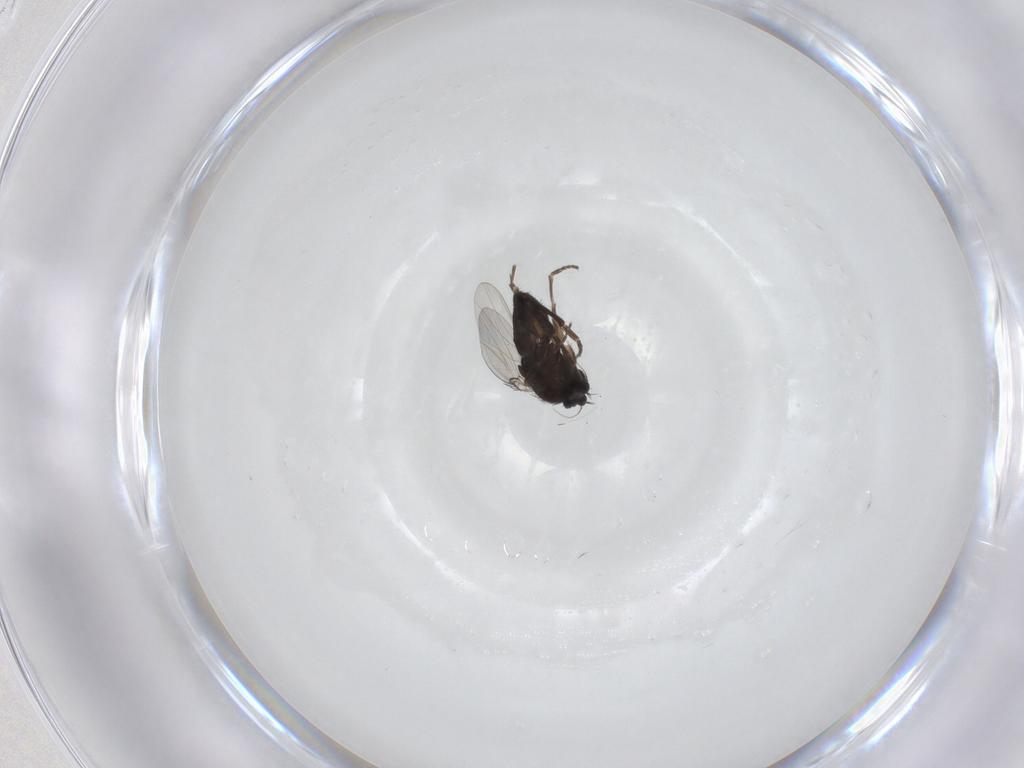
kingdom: Animalia
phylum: Arthropoda
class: Insecta
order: Diptera
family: Phoridae
